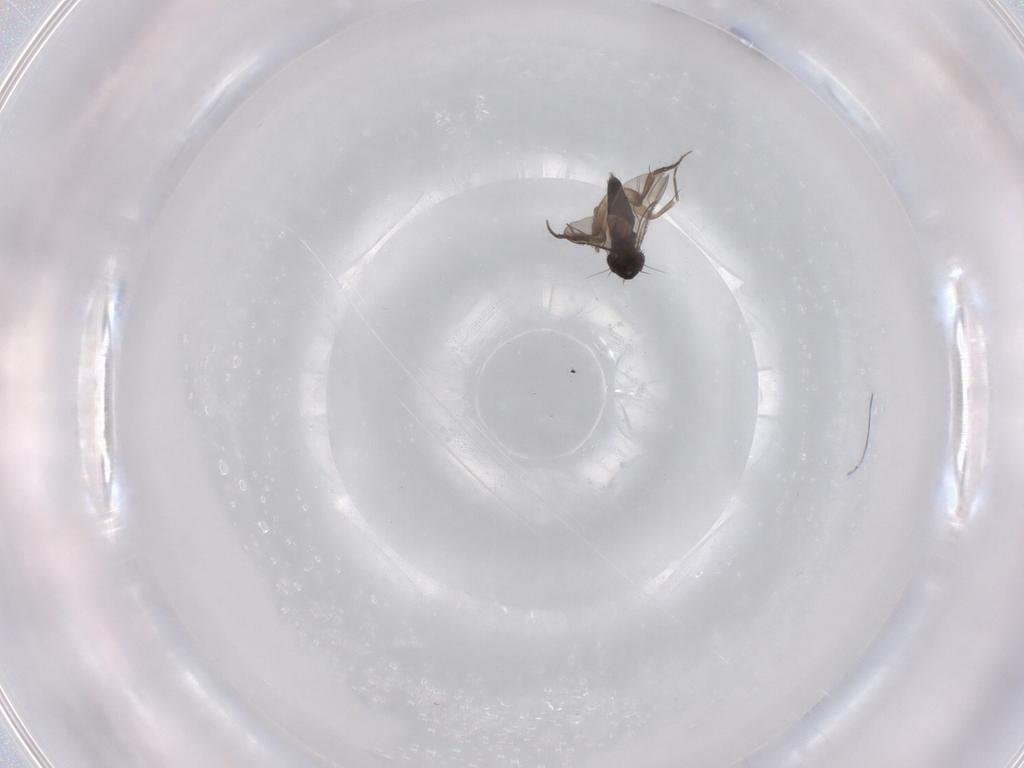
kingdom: Animalia
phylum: Arthropoda
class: Insecta
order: Diptera
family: Phoridae
